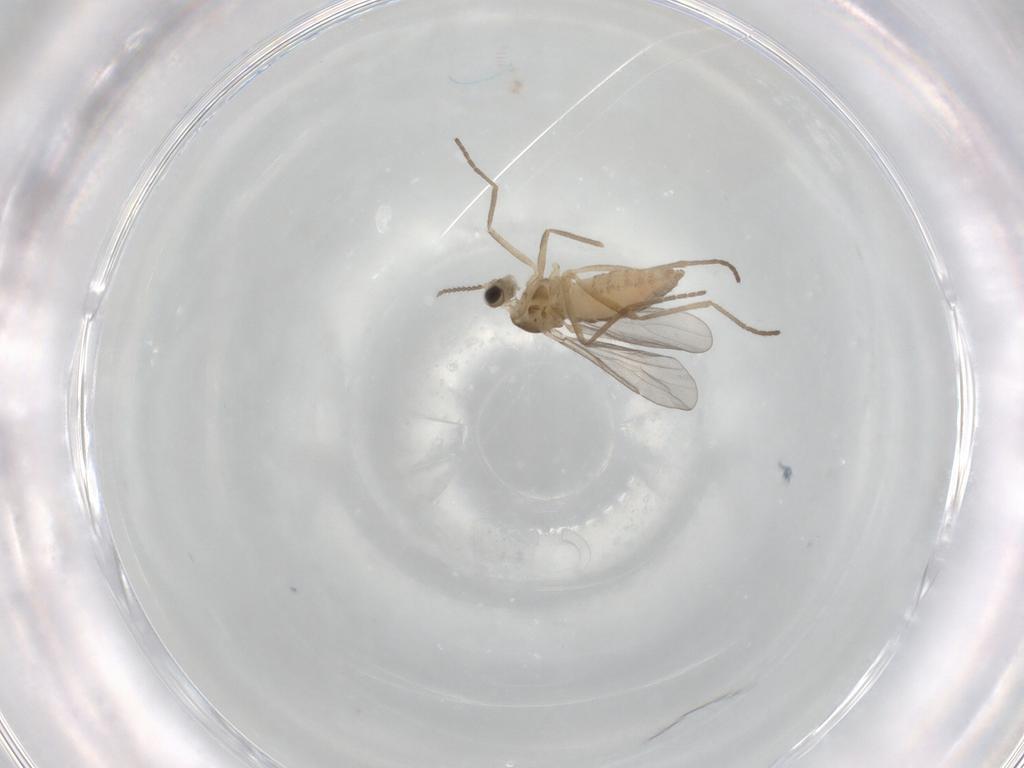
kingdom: Animalia
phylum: Arthropoda
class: Insecta
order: Diptera
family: Cecidomyiidae
